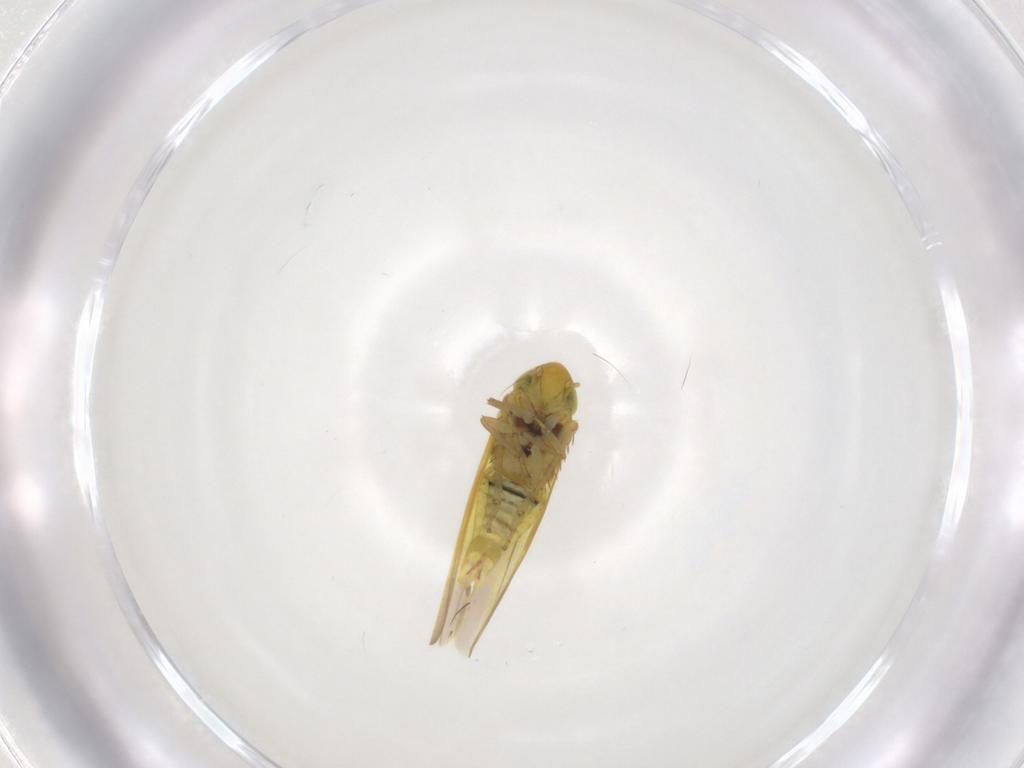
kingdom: Animalia
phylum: Arthropoda
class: Insecta
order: Hemiptera
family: Cicadellidae
